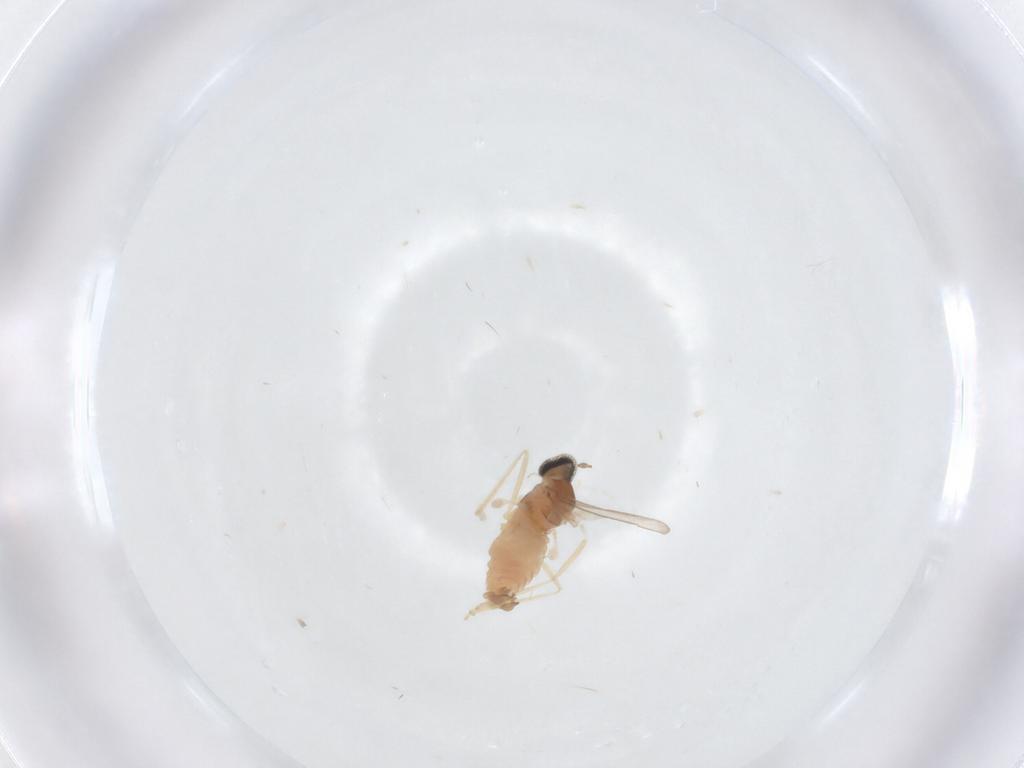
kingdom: Animalia
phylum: Arthropoda
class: Insecta
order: Diptera
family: Cecidomyiidae
